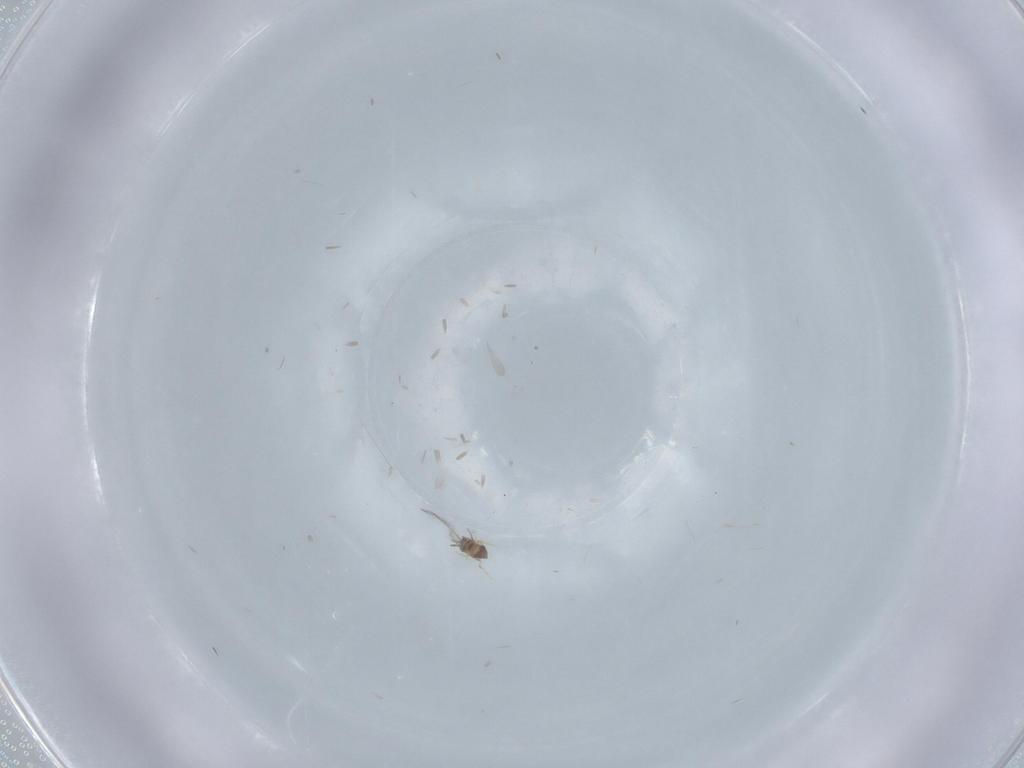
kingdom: Animalia
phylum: Arthropoda
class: Insecta
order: Hymenoptera
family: Mymaridae
